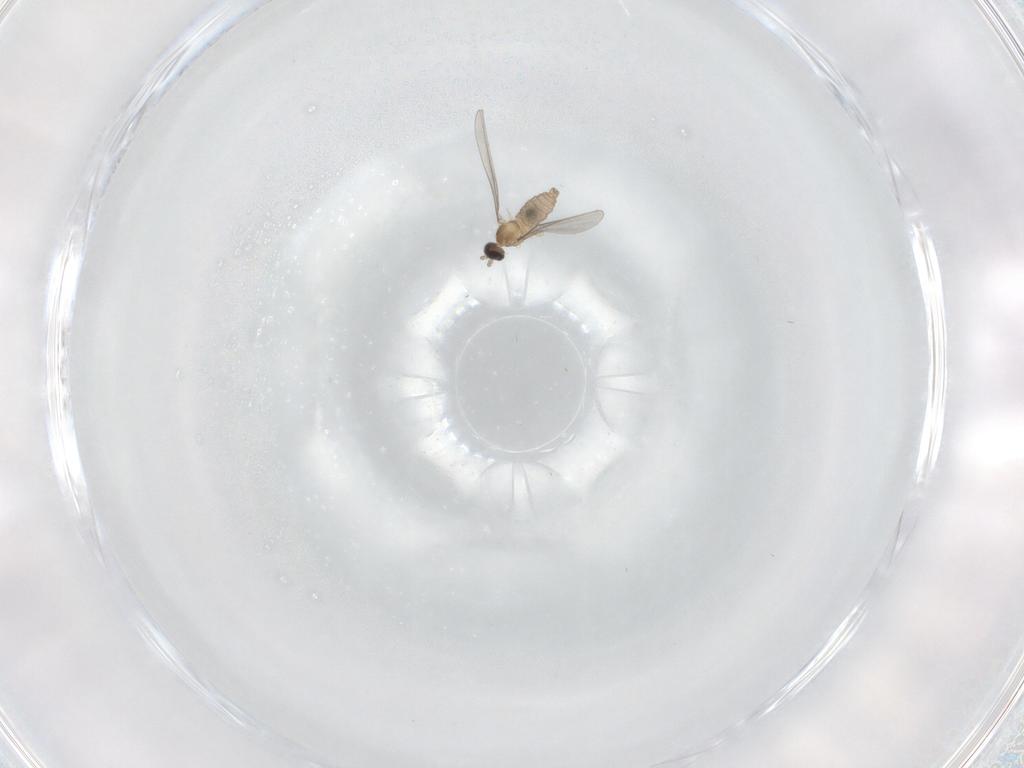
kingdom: Animalia
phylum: Arthropoda
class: Insecta
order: Diptera
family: Cecidomyiidae
